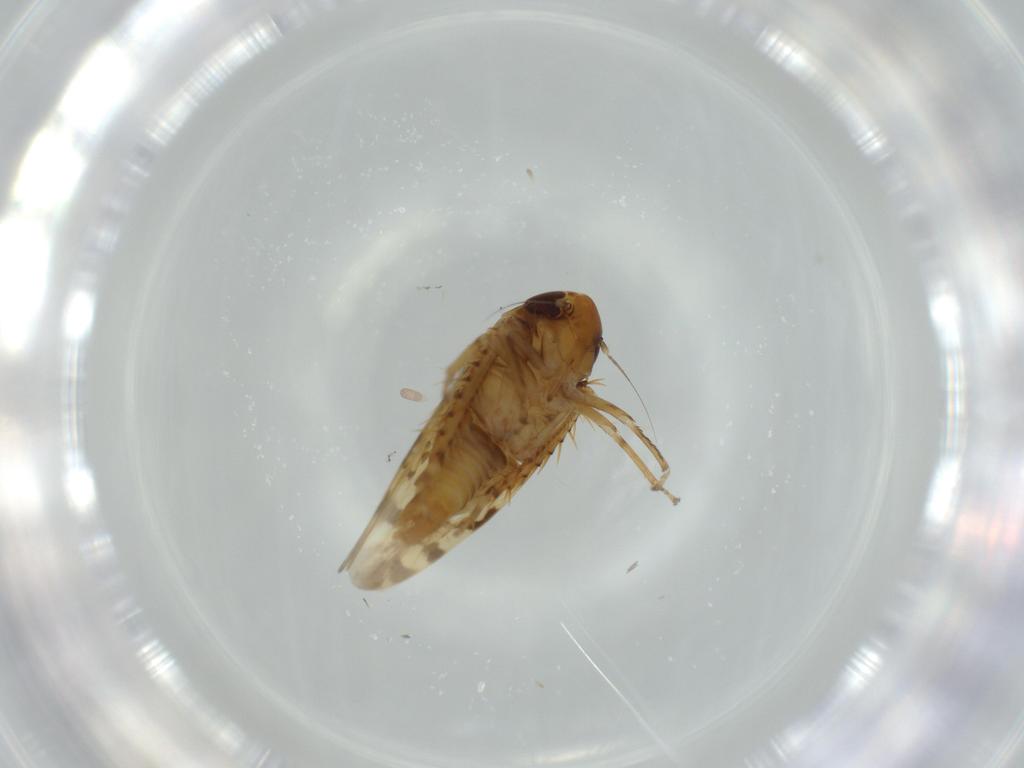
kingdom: Animalia
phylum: Arthropoda
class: Insecta
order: Hemiptera
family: Cicadellidae
